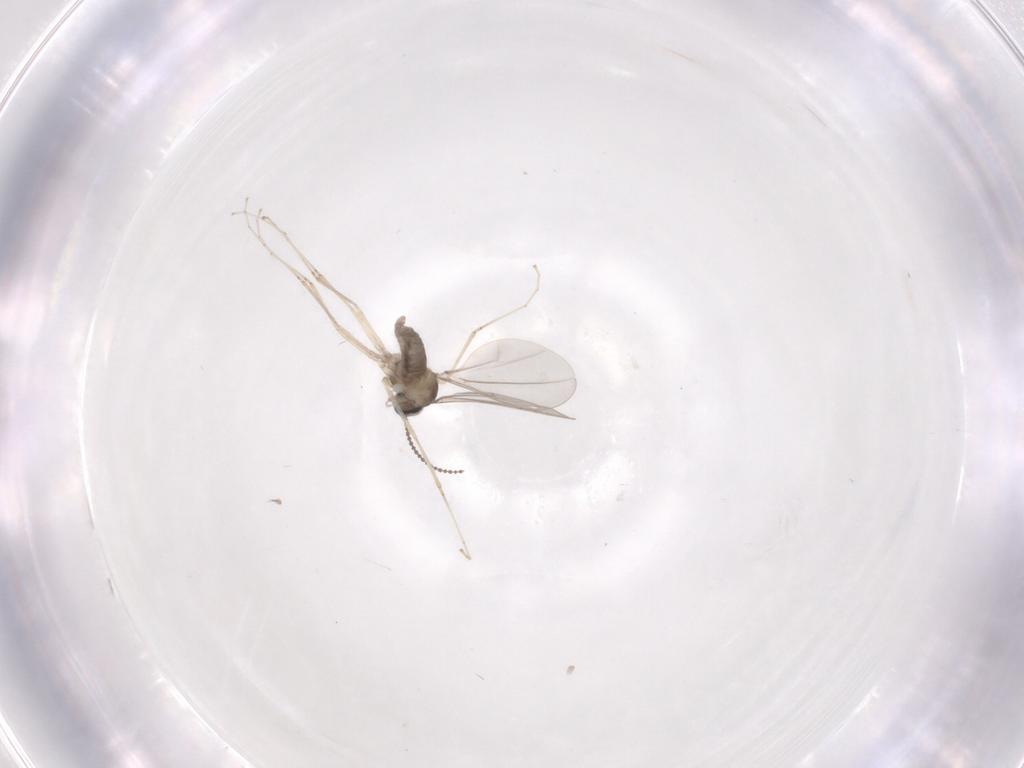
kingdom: Animalia
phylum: Arthropoda
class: Insecta
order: Diptera
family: Cecidomyiidae
